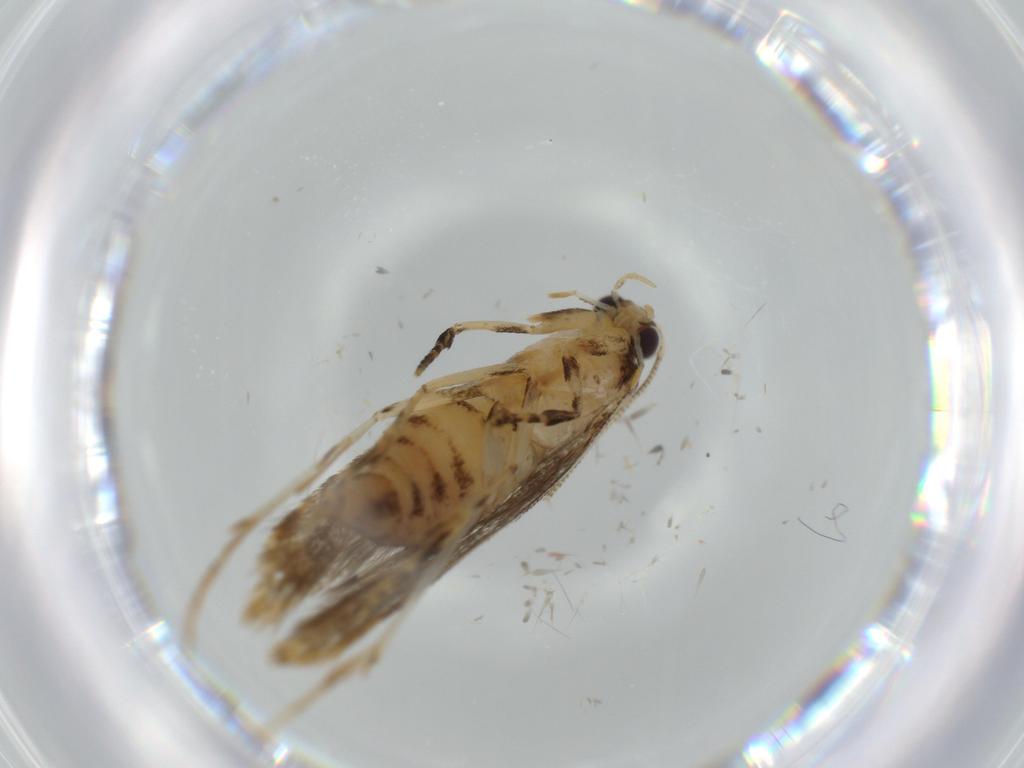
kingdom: Animalia
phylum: Arthropoda
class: Insecta
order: Lepidoptera
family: Tineidae
